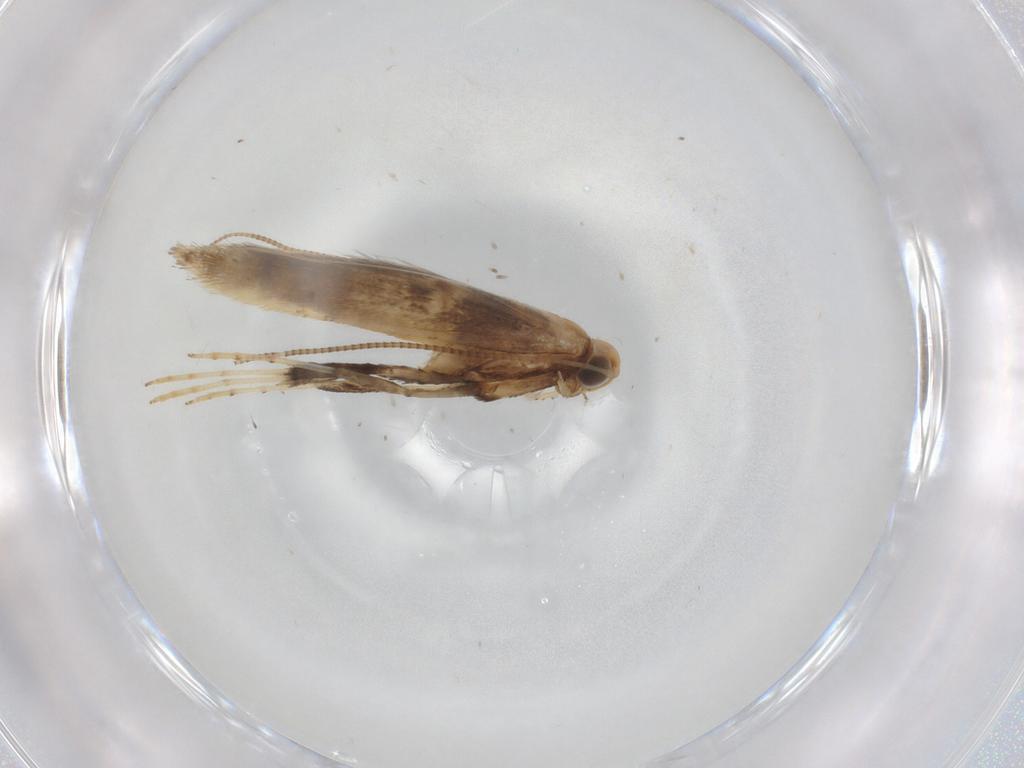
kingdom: Animalia
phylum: Arthropoda
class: Insecta
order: Lepidoptera
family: Gracillariidae
